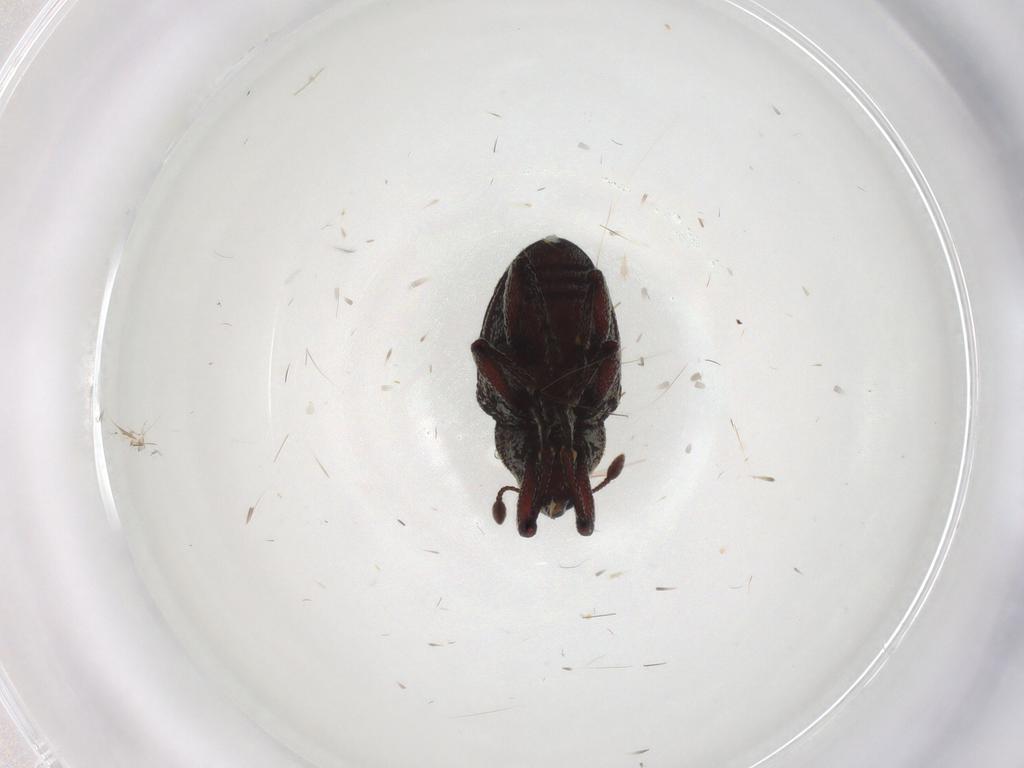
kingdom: Animalia
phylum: Arthropoda
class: Insecta
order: Coleoptera
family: Curculionidae
